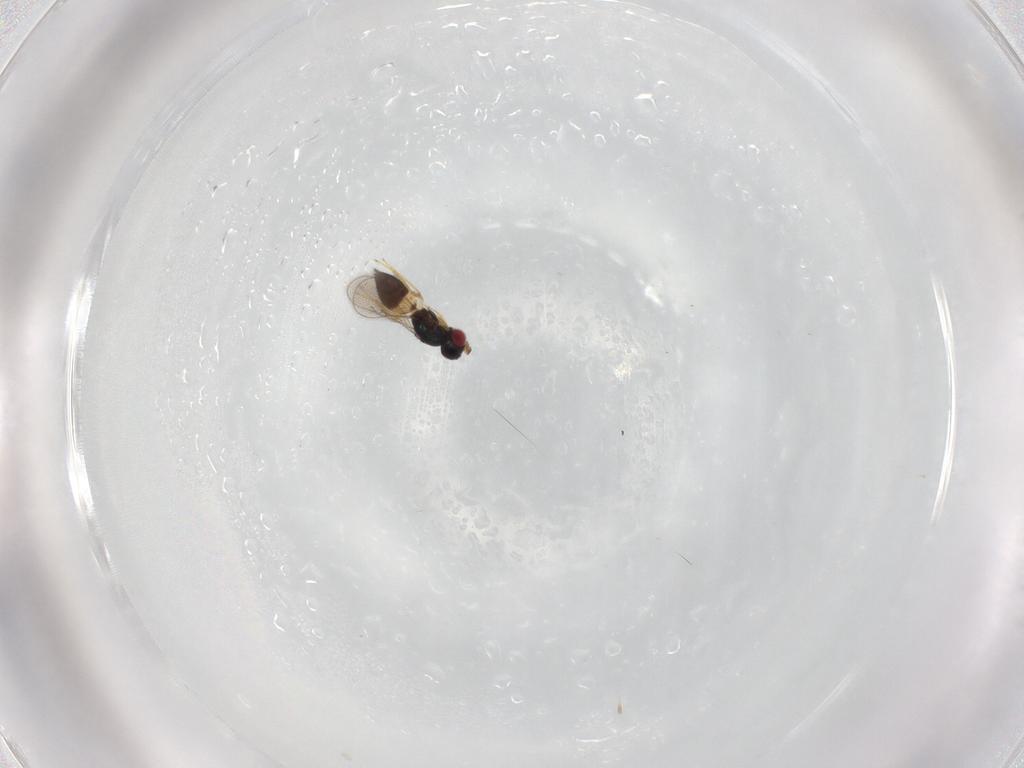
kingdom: Animalia
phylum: Arthropoda
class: Insecta
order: Hymenoptera
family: Eulophidae
